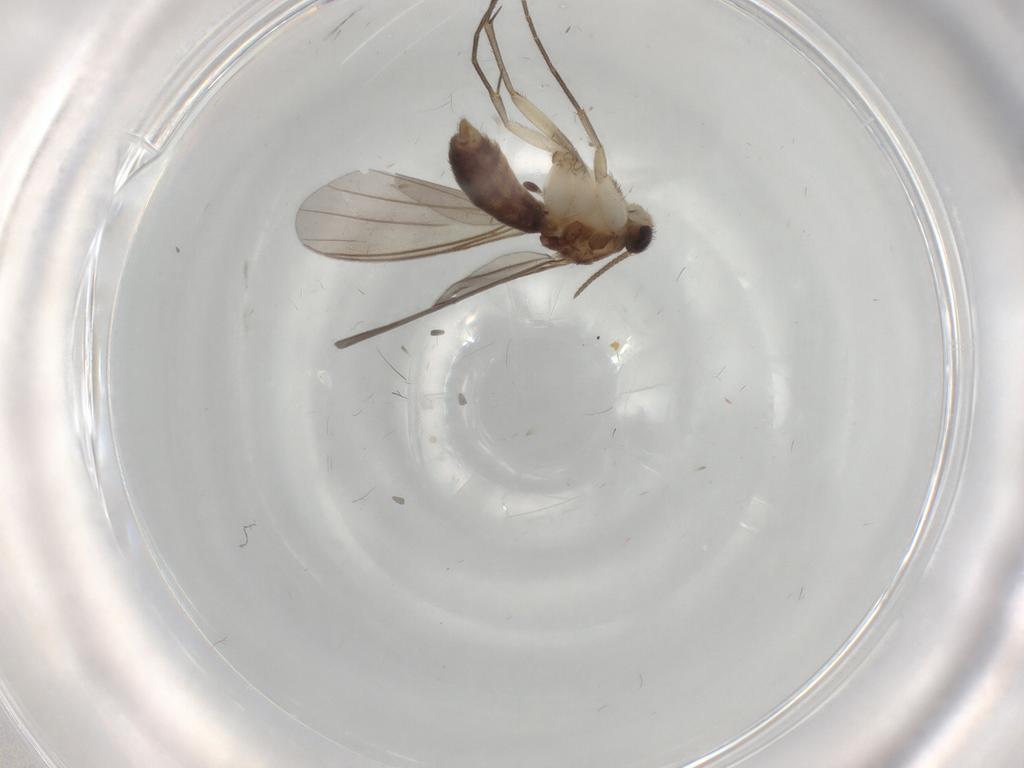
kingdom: Animalia
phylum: Arthropoda
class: Insecta
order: Diptera
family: Mycetophilidae
